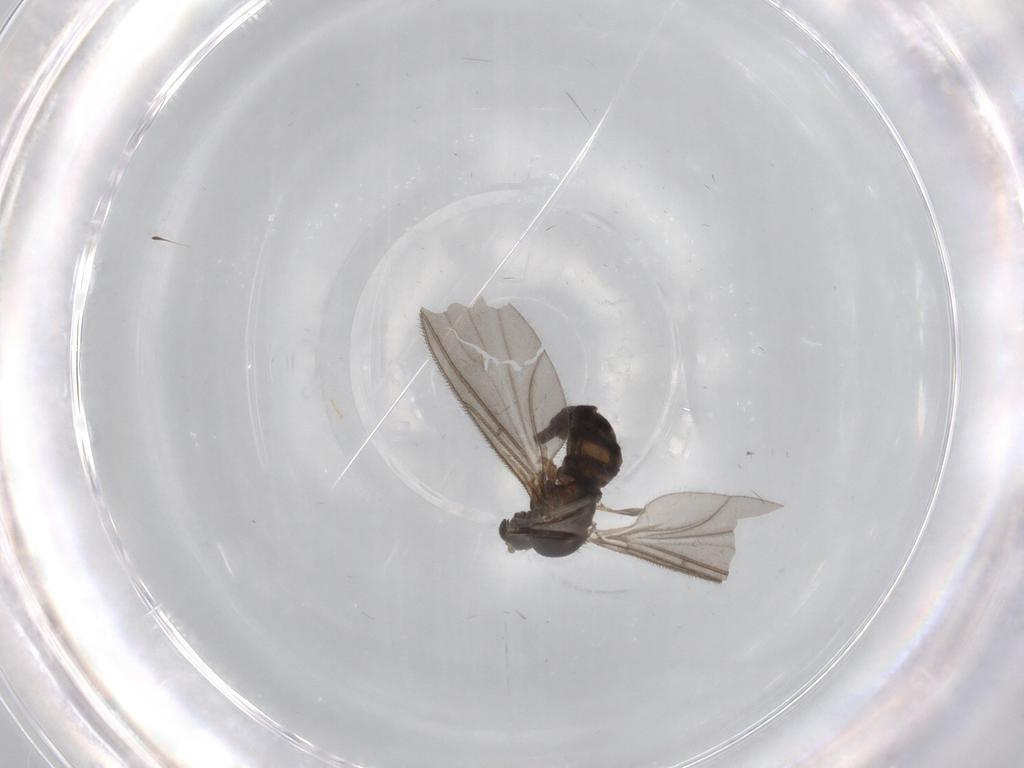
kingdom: Animalia
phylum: Arthropoda
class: Insecta
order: Diptera
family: Sciaridae
